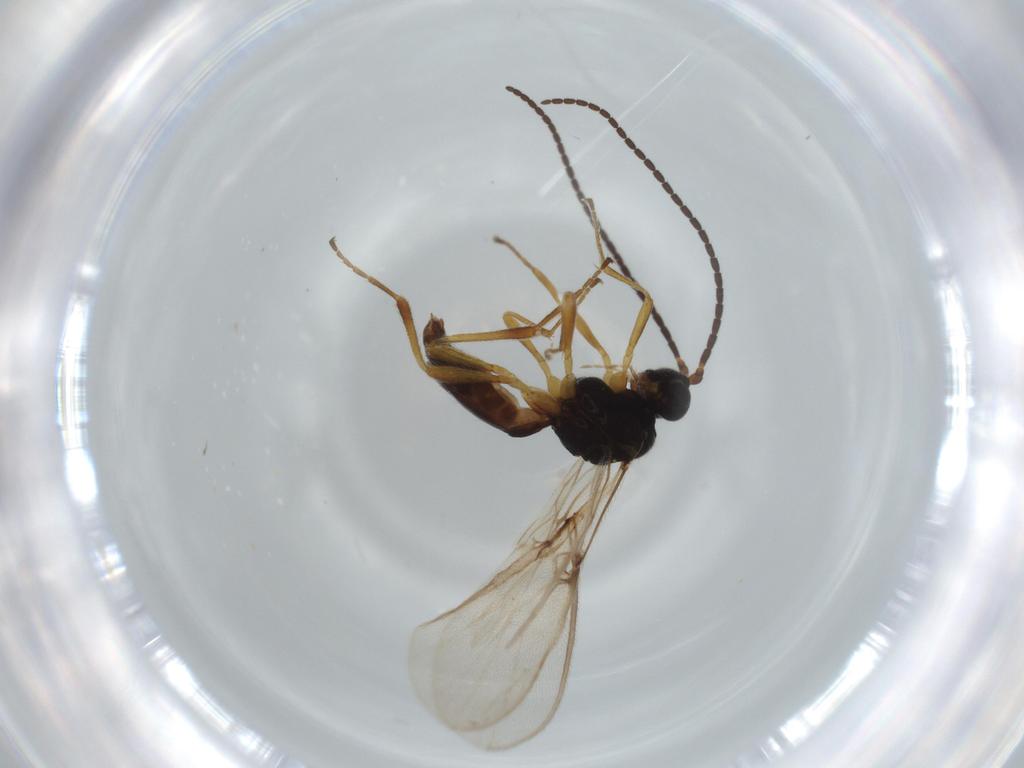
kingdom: Animalia
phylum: Arthropoda
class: Insecta
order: Hymenoptera
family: Braconidae
